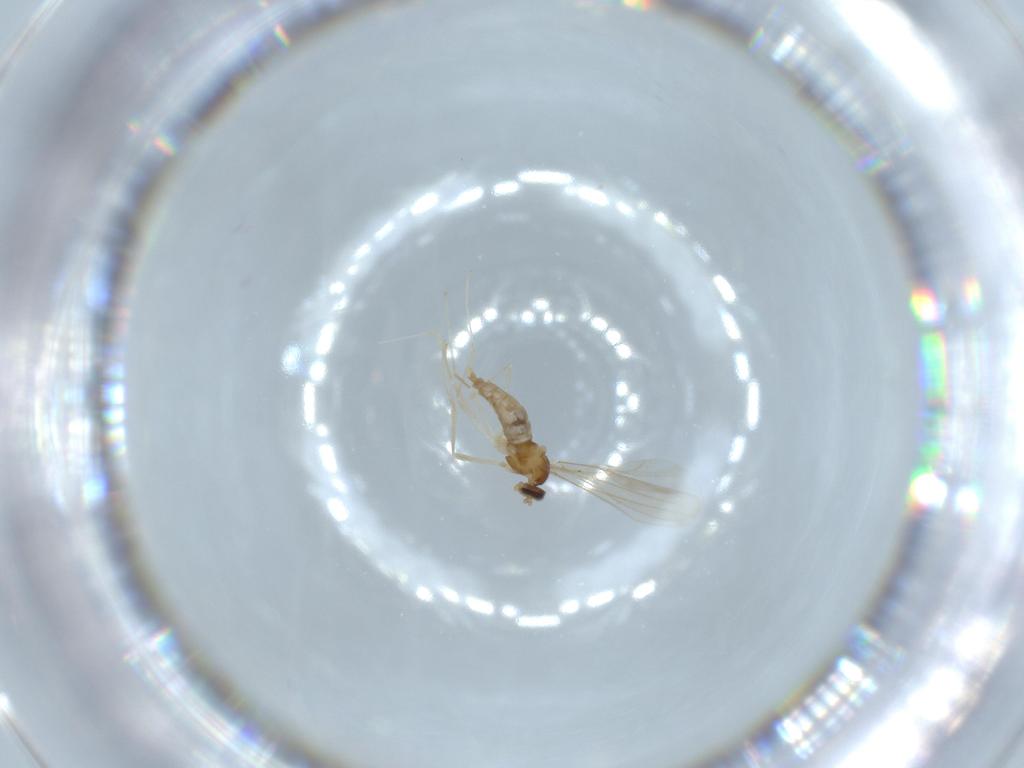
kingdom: Animalia
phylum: Arthropoda
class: Insecta
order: Diptera
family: Cecidomyiidae
